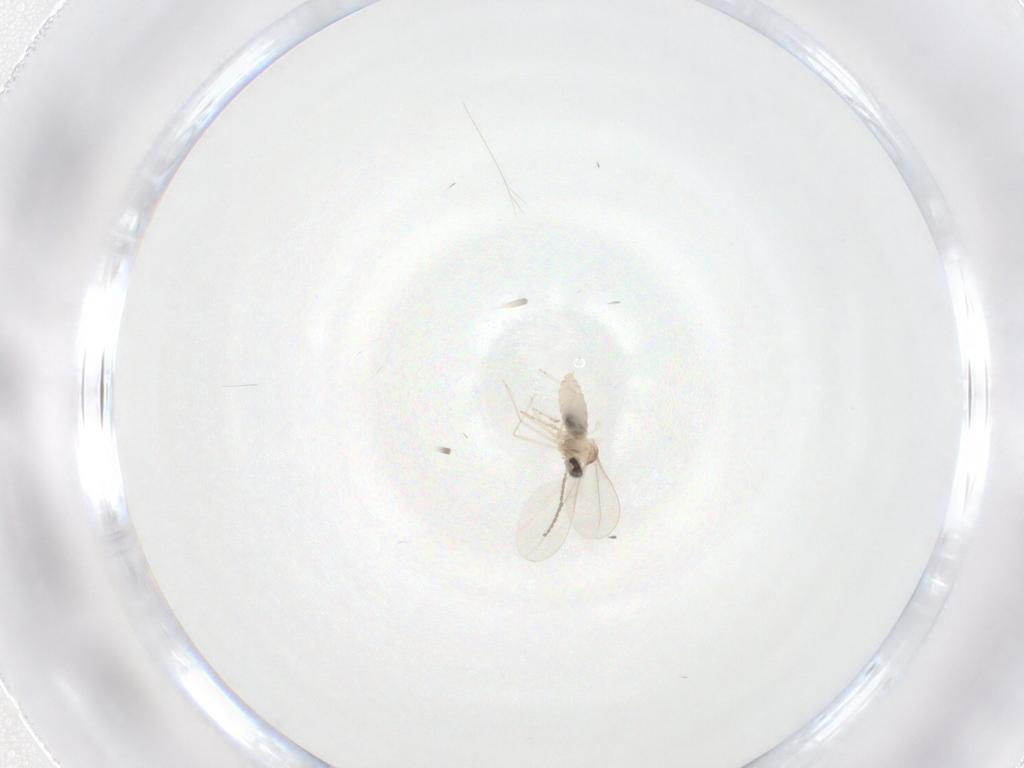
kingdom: Animalia
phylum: Arthropoda
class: Insecta
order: Diptera
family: Cecidomyiidae
